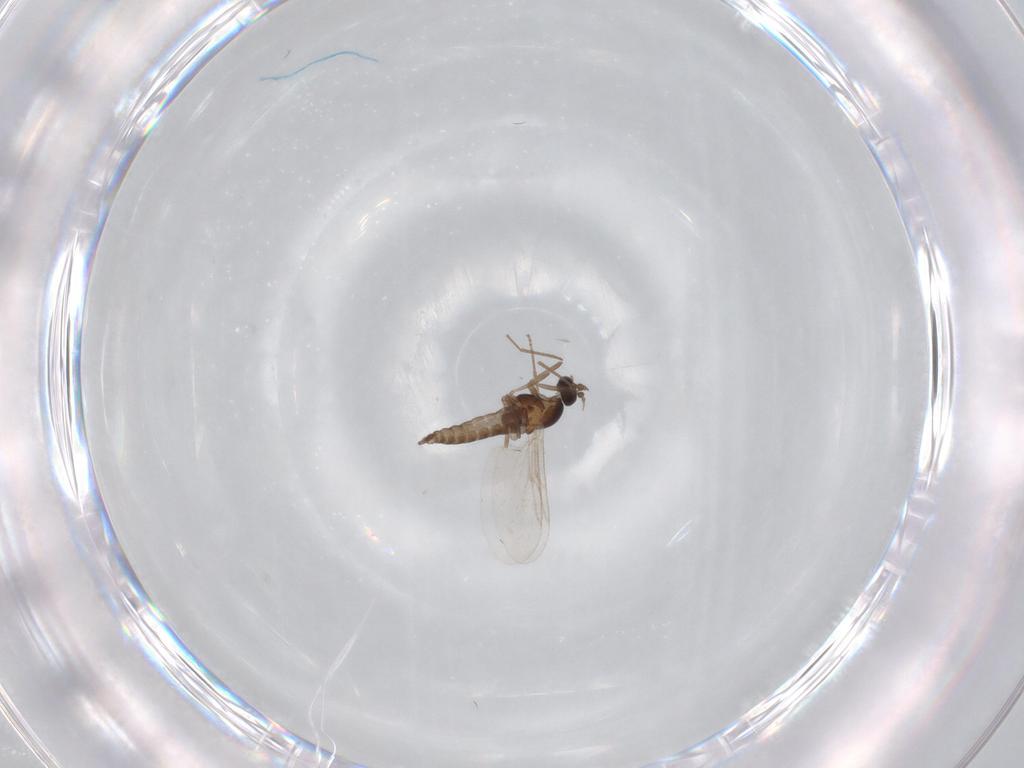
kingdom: Animalia
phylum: Arthropoda
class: Insecta
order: Diptera
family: Cecidomyiidae
